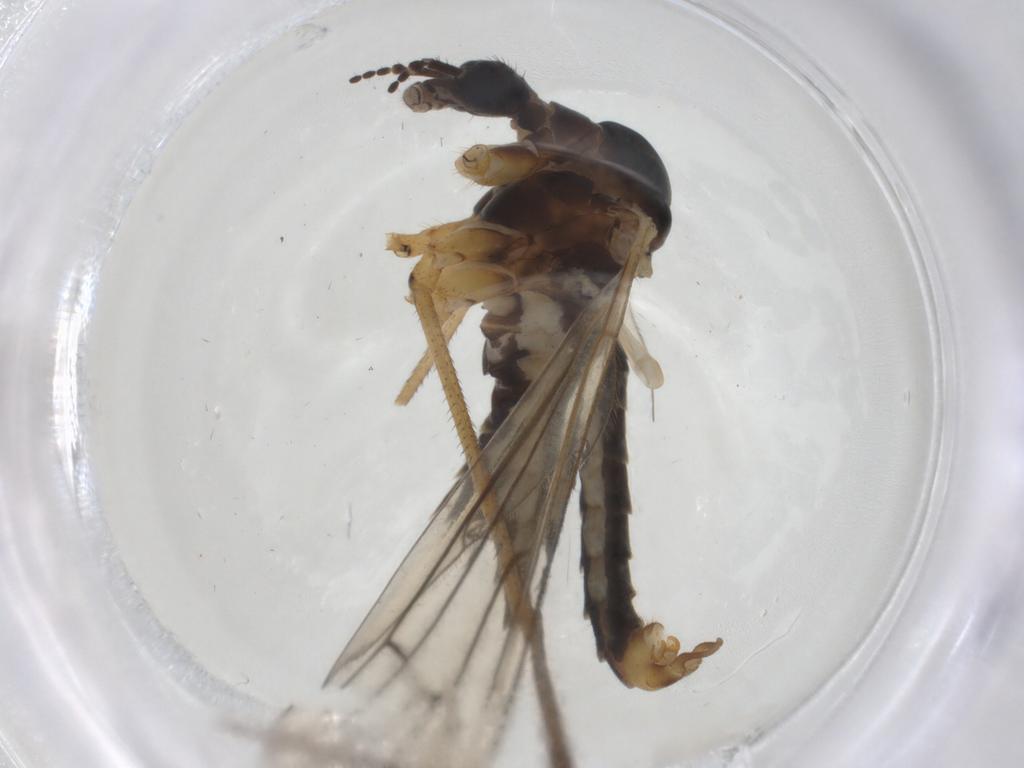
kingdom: Animalia
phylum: Arthropoda
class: Insecta
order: Diptera
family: Limoniidae
